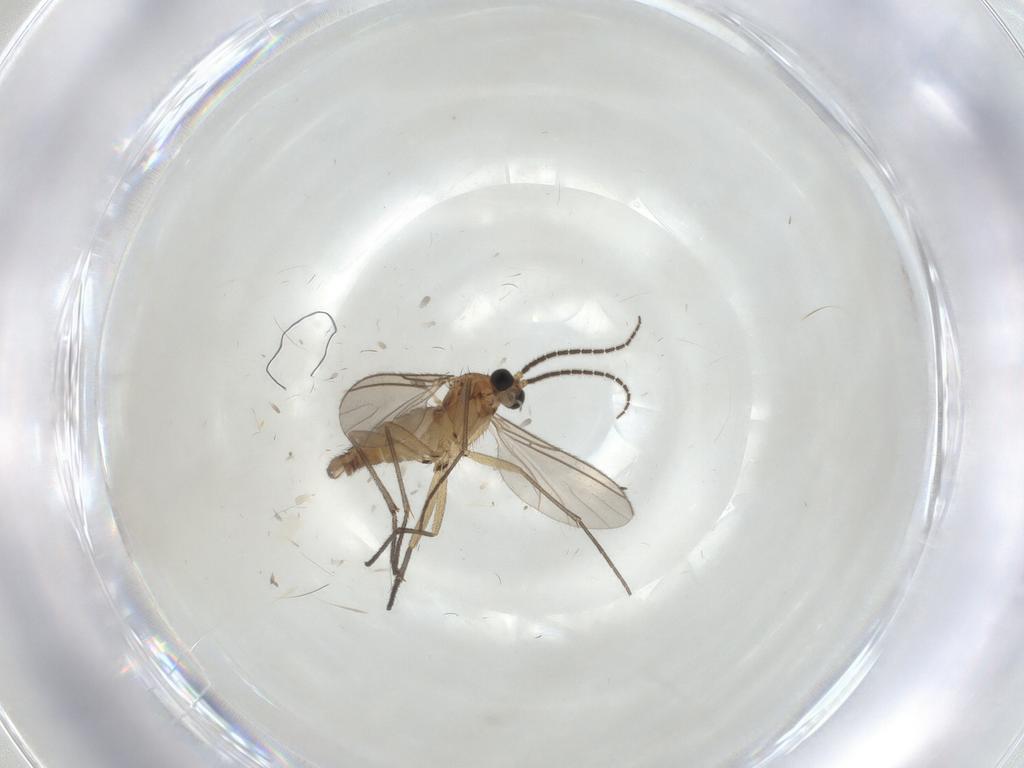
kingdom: Animalia
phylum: Arthropoda
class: Insecta
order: Diptera
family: Sciaridae
